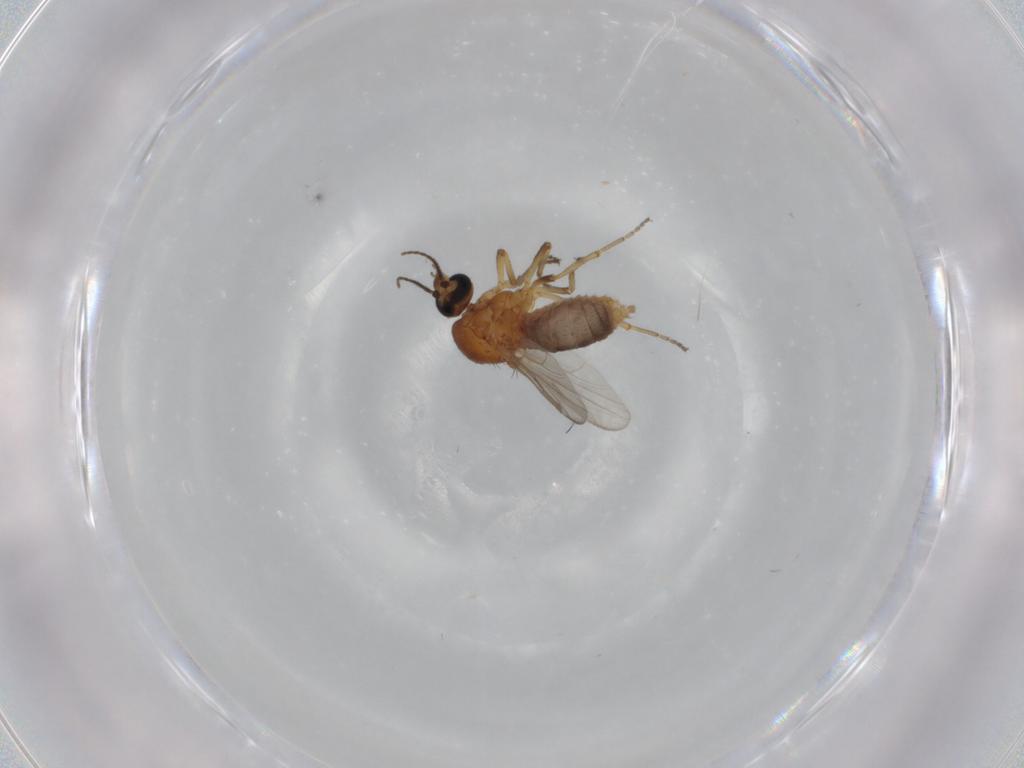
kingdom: Animalia
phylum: Arthropoda
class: Insecta
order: Diptera
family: Ceratopogonidae
